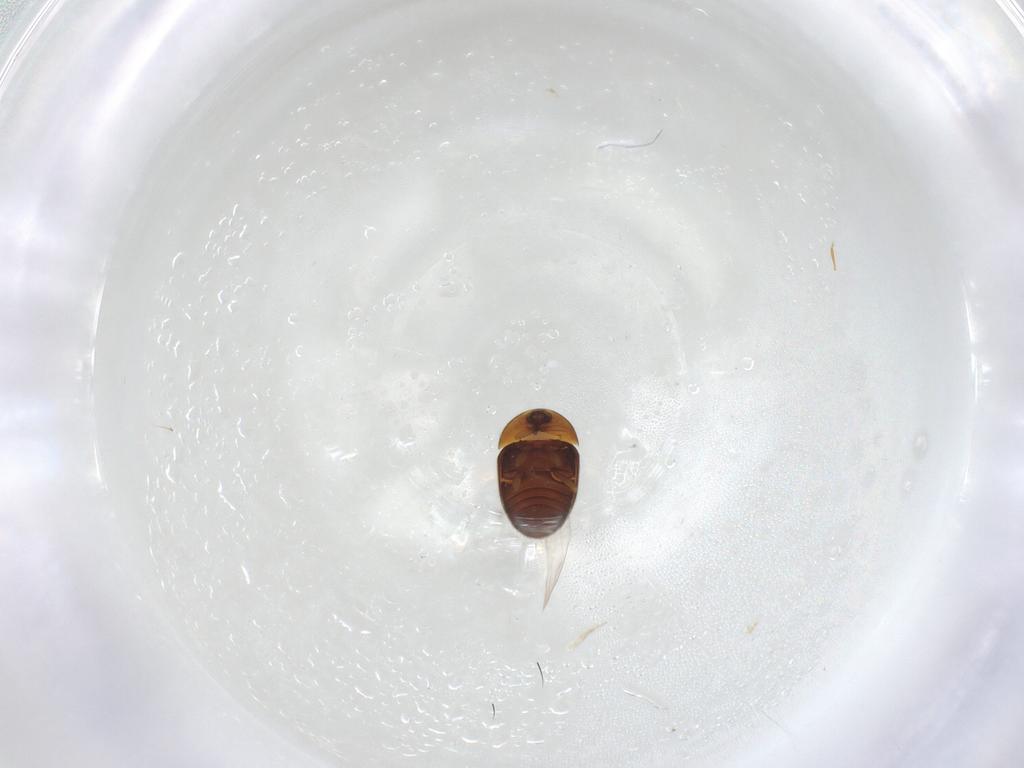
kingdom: Animalia
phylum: Arthropoda
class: Insecta
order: Coleoptera
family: Corylophidae
